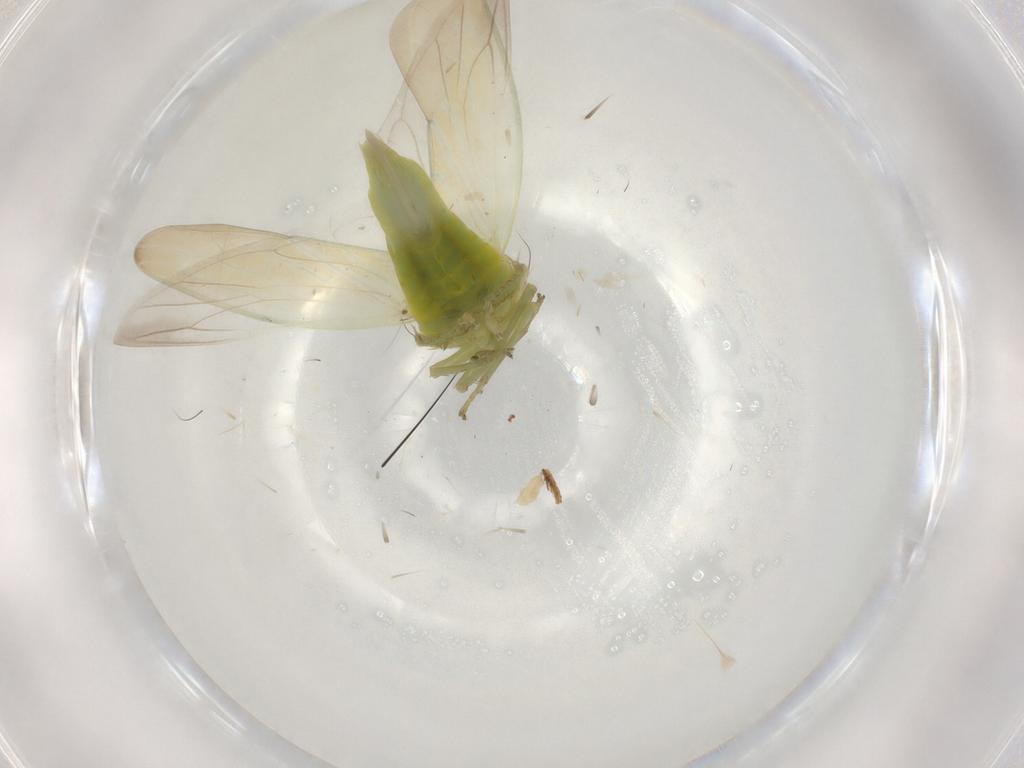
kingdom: Animalia
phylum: Arthropoda
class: Insecta
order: Hemiptera
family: Cicadellidae
